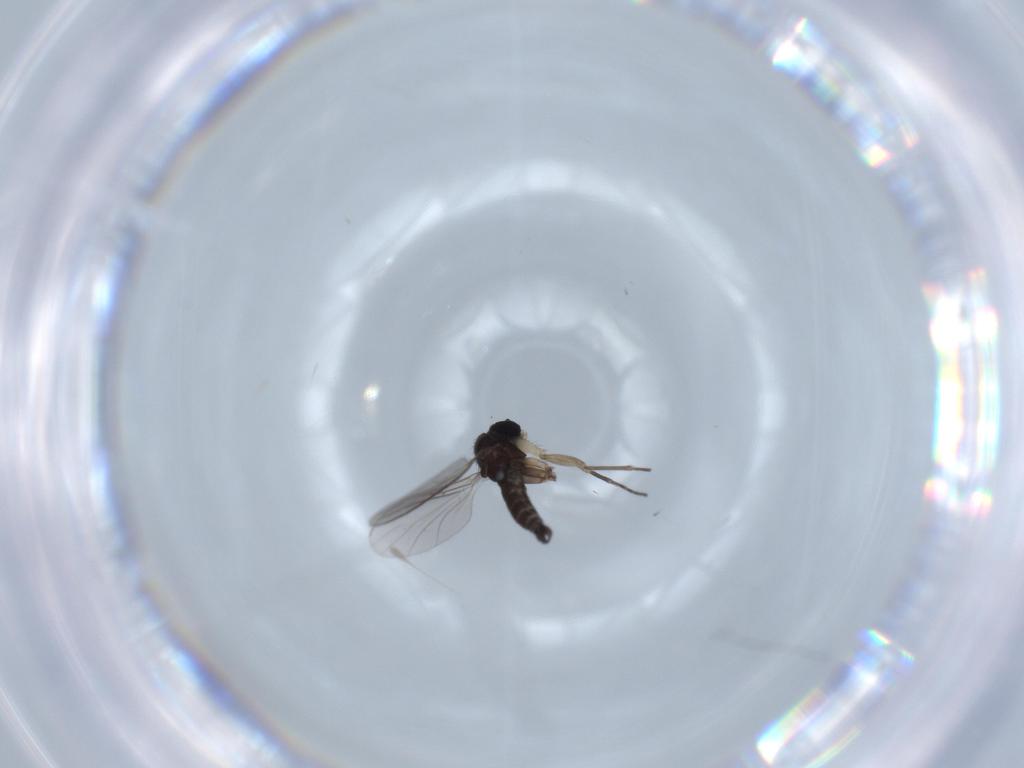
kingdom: Animalia
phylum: Arthropoda
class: Insecta
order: Diptera
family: Sciaridae
